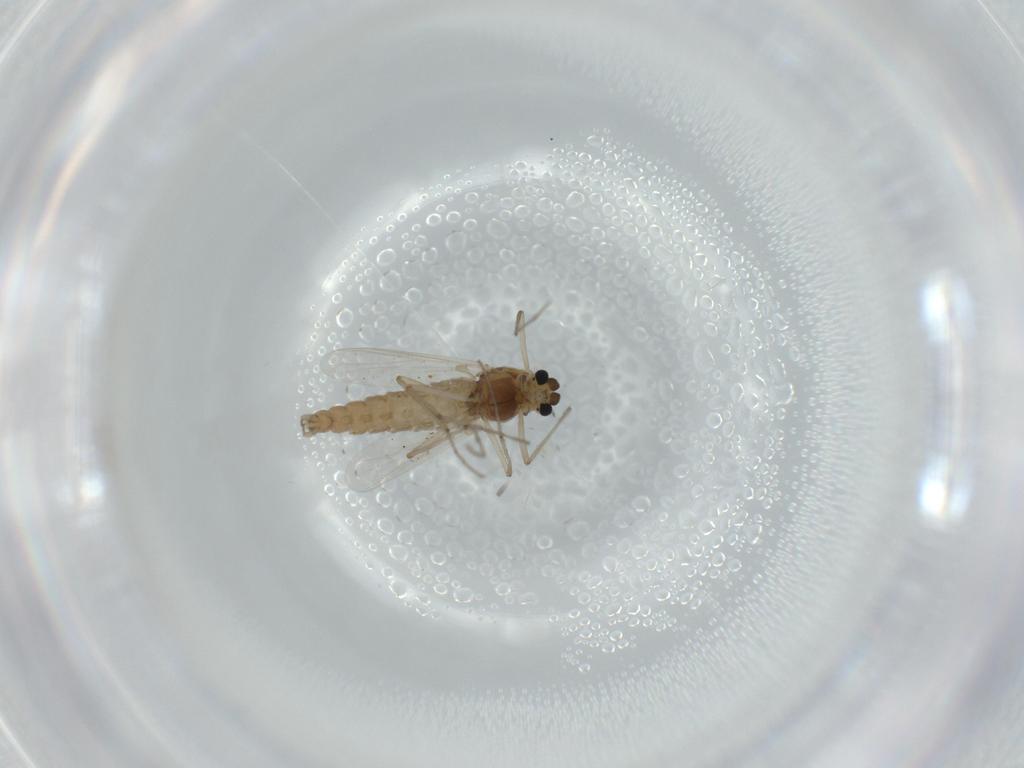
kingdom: Animalia
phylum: Arthropoda
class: Insecta
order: Diptera
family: Chironomidae
